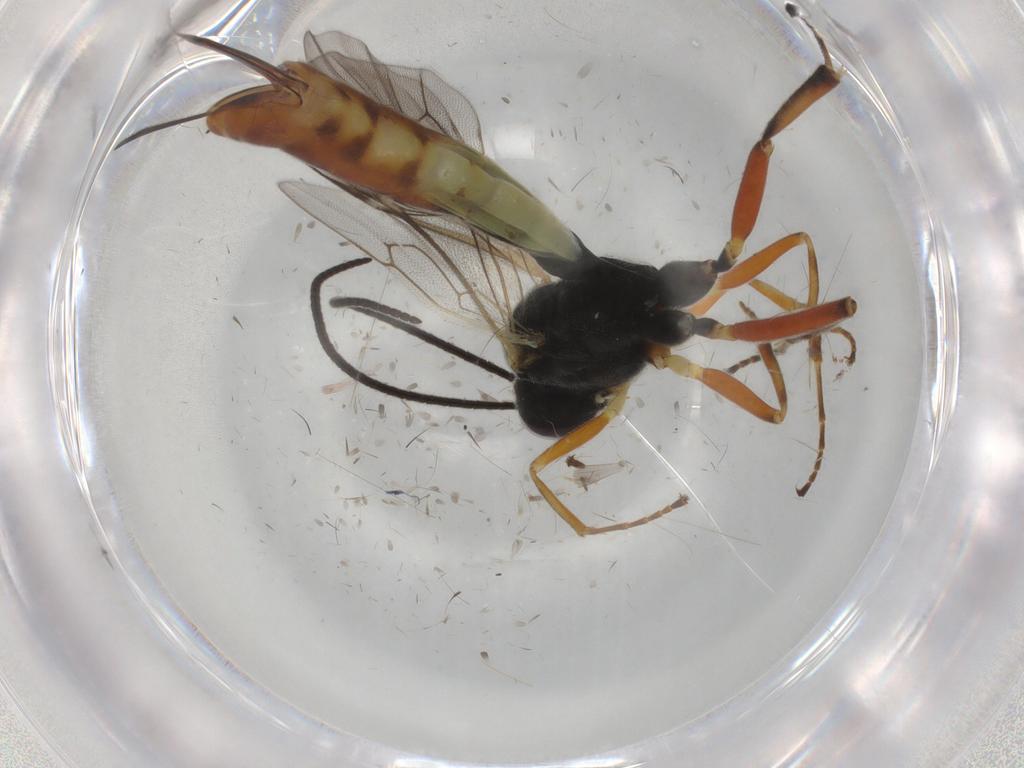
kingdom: Animalia
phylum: Arthropoda
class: Insecta
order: Hymenoptera
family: Ichneumonidae
